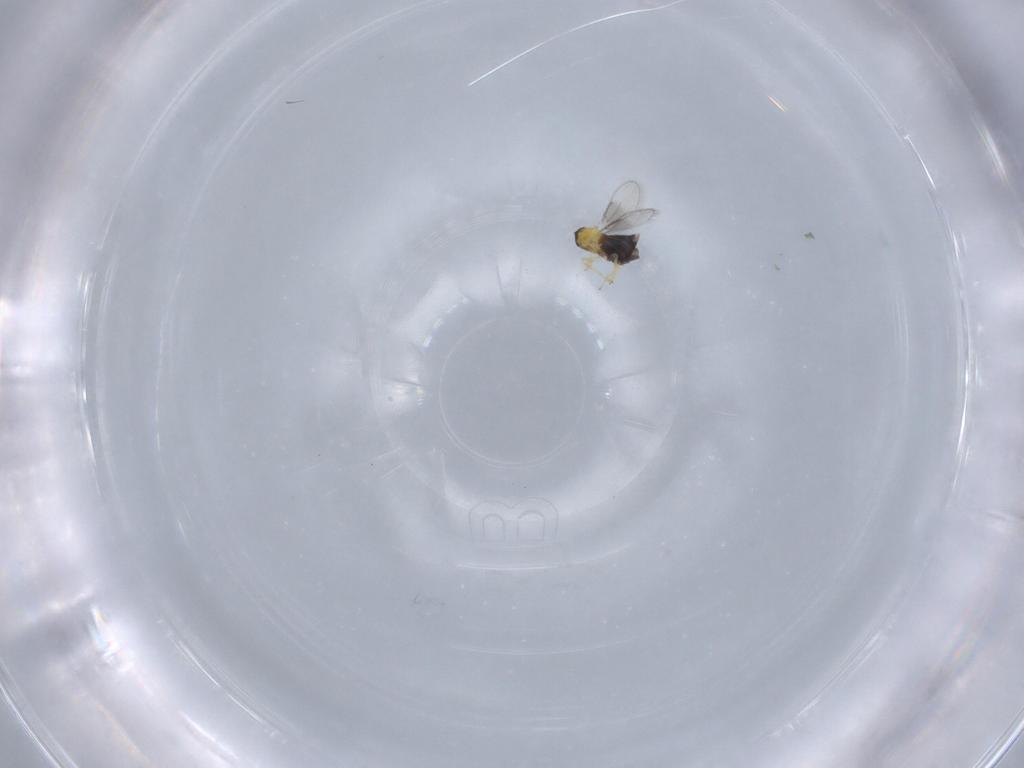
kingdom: Animalia
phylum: Arthropoda
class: Insecta
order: Hymenoptera
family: Aphelinidae
